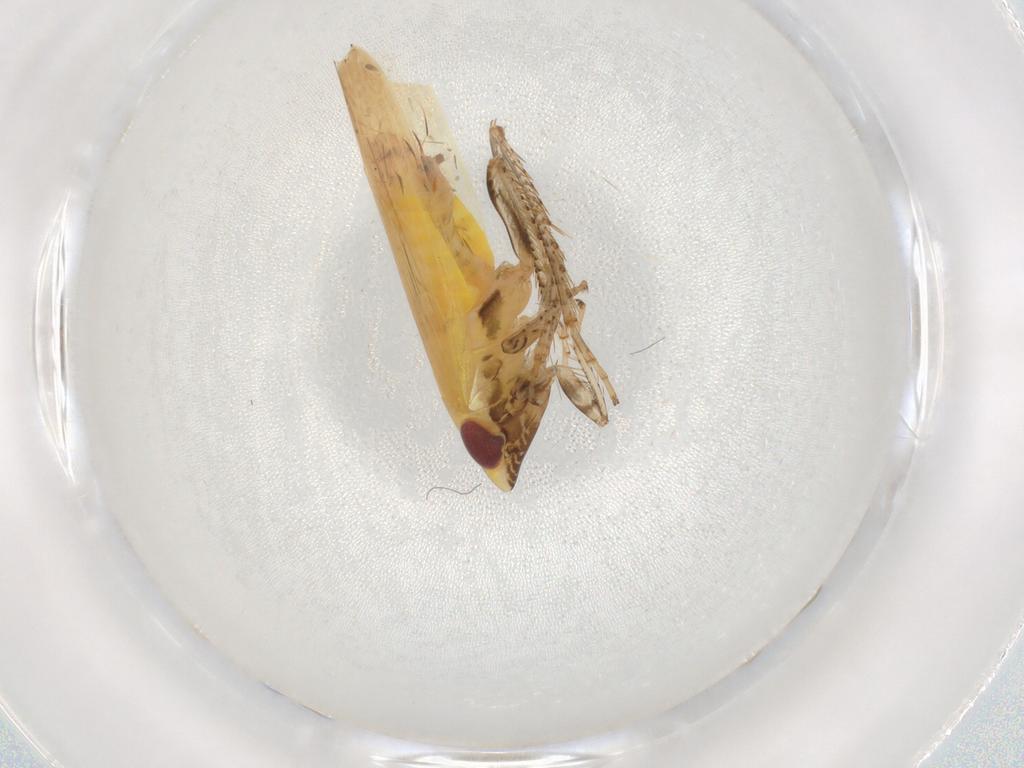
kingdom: Animalia
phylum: Arthropoda
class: Insecta
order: Hemiptera
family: Cicadellidae
